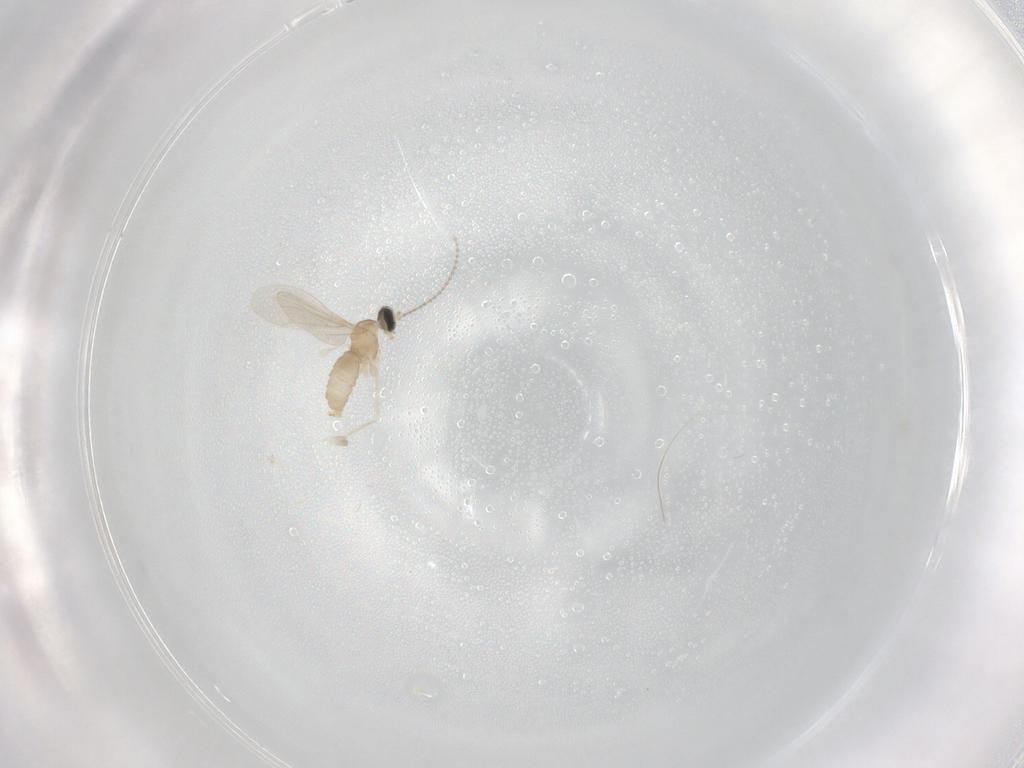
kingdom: Animalia
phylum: Arthropoda
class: Insecta
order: Diptera
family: Cecidomyiidae
